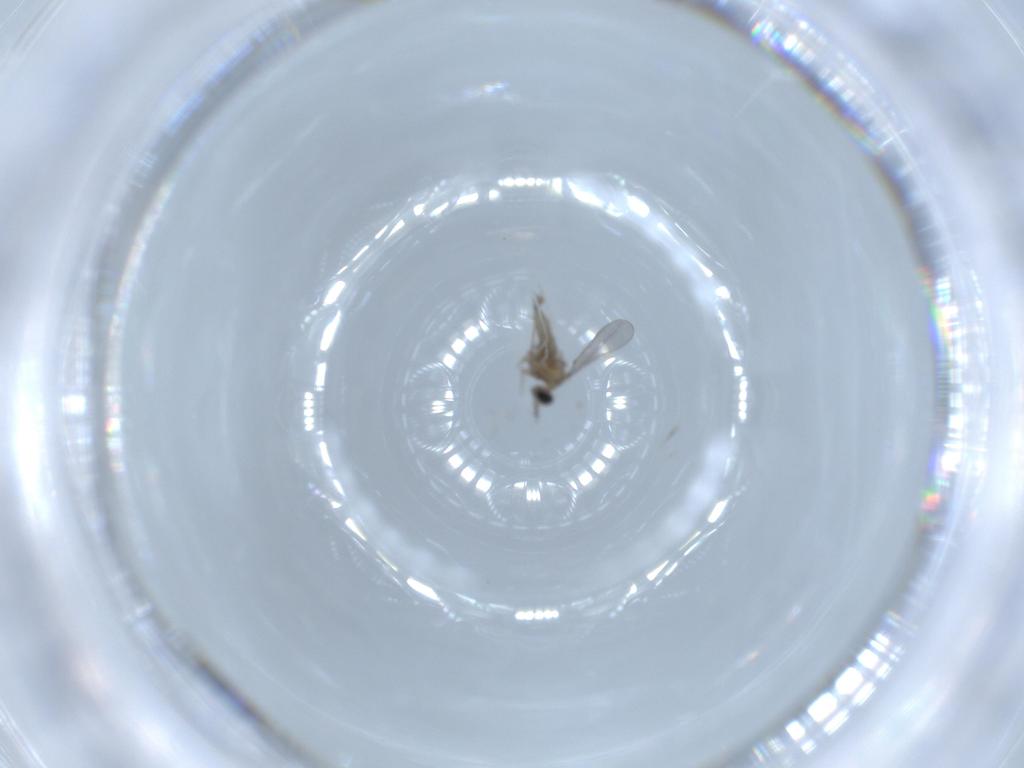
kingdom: Animalia
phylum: Arthropoda
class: Insecta
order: Diptera
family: Cecidomyiidae
